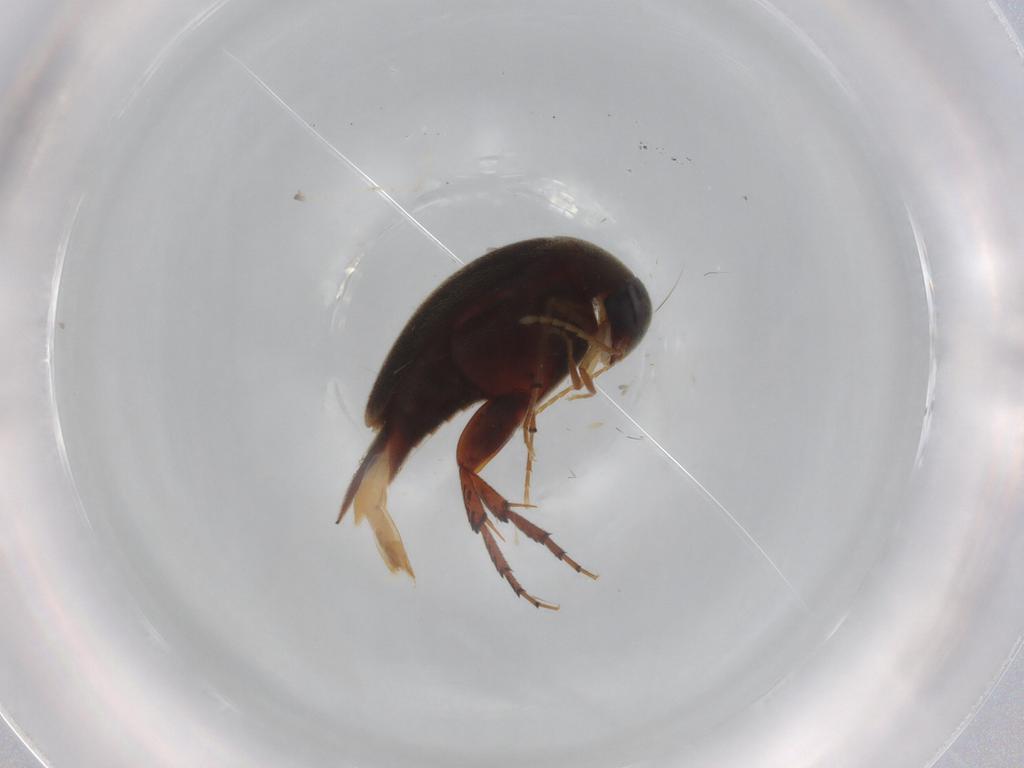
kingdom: Animalia
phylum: Arthropoda
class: Insecta
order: Coleoptera
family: Mordellidae
